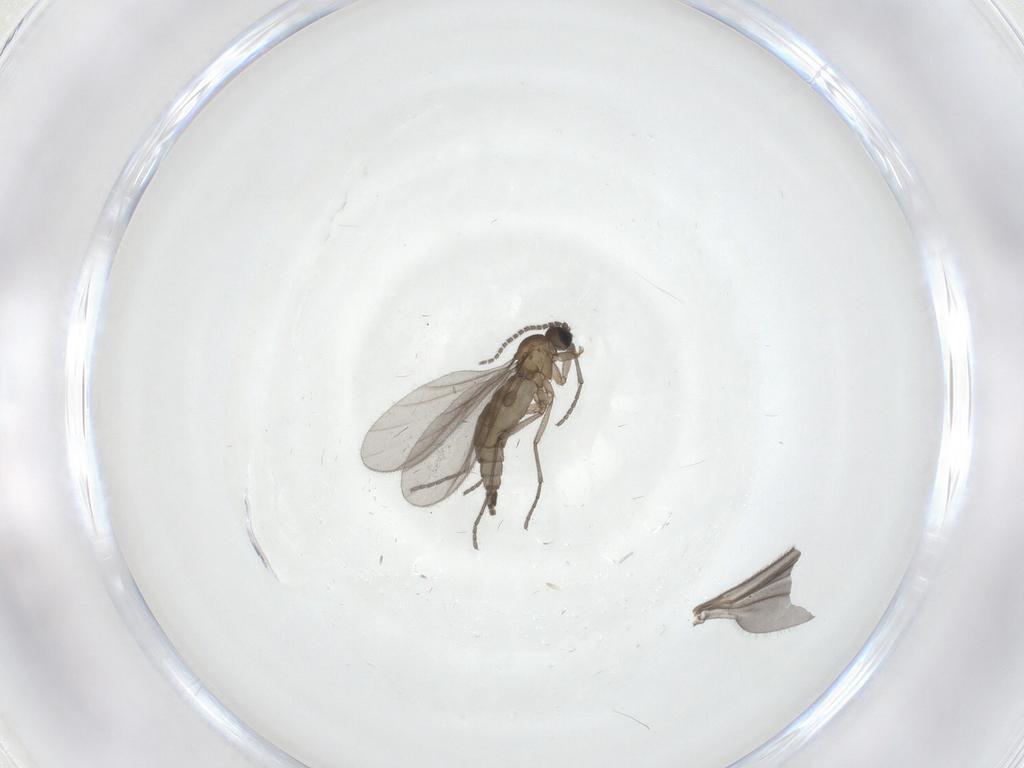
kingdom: Animalia
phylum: Arthropoda
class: Insecta
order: Diptera
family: Sciaridae
